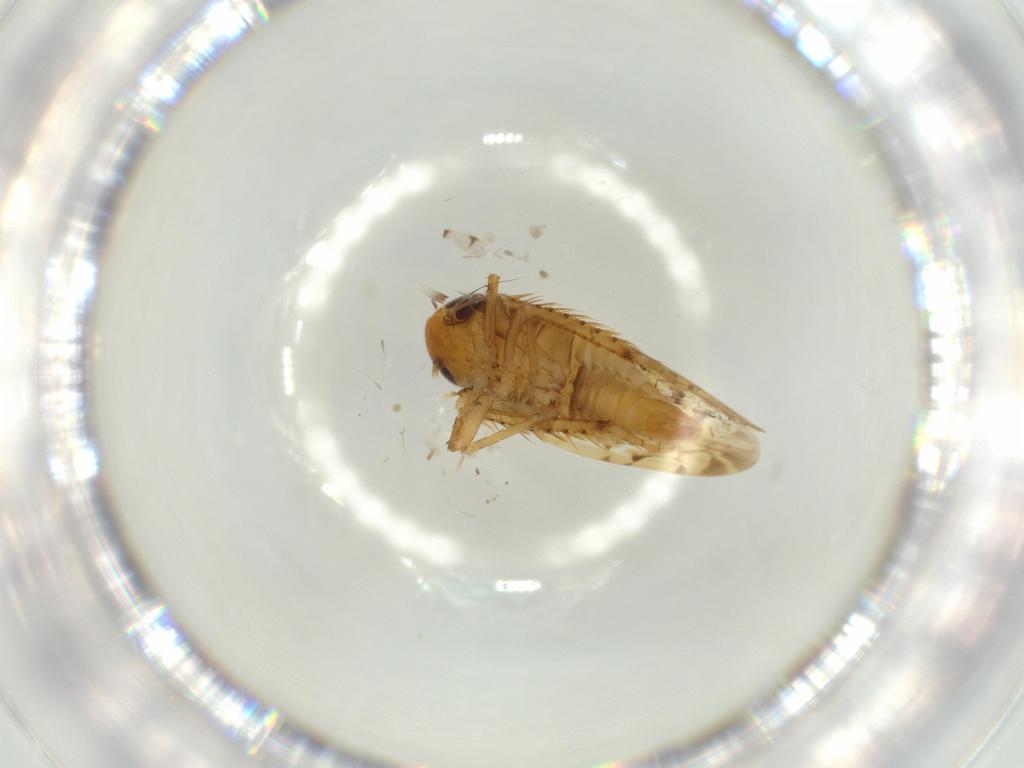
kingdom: Animalia
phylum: Arthropoda
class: Insecta
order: Hemiptera
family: Cicadellidae
